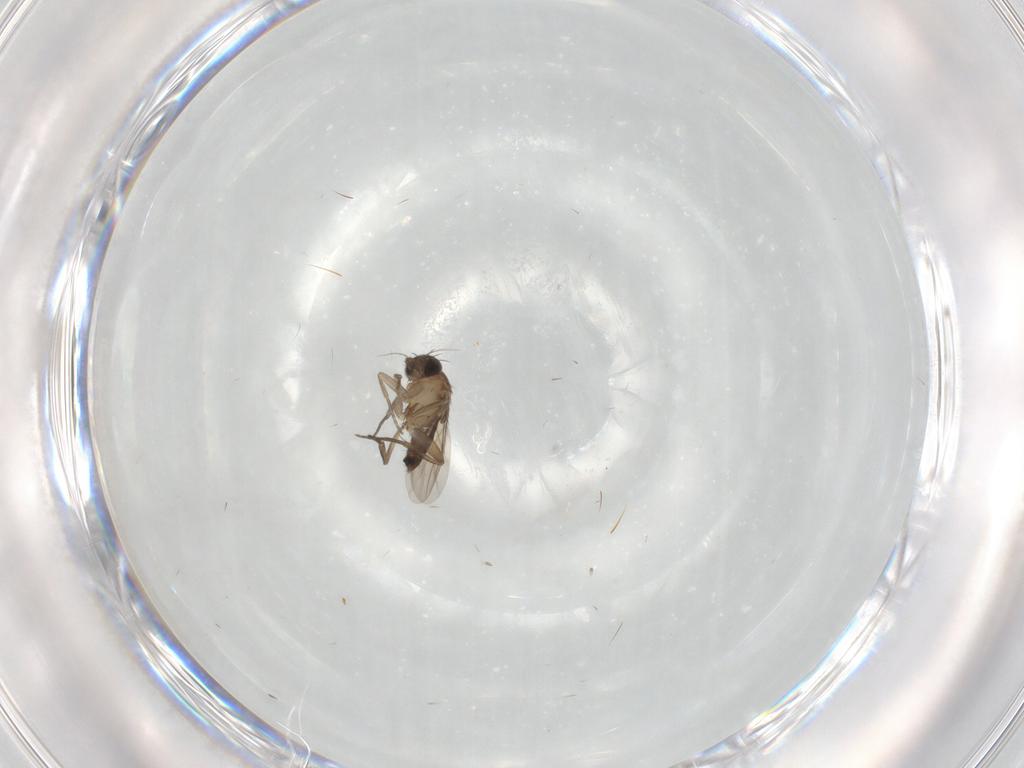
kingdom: Animalia
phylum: Arthropoda
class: Insecta
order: Diptera
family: Phoridae
